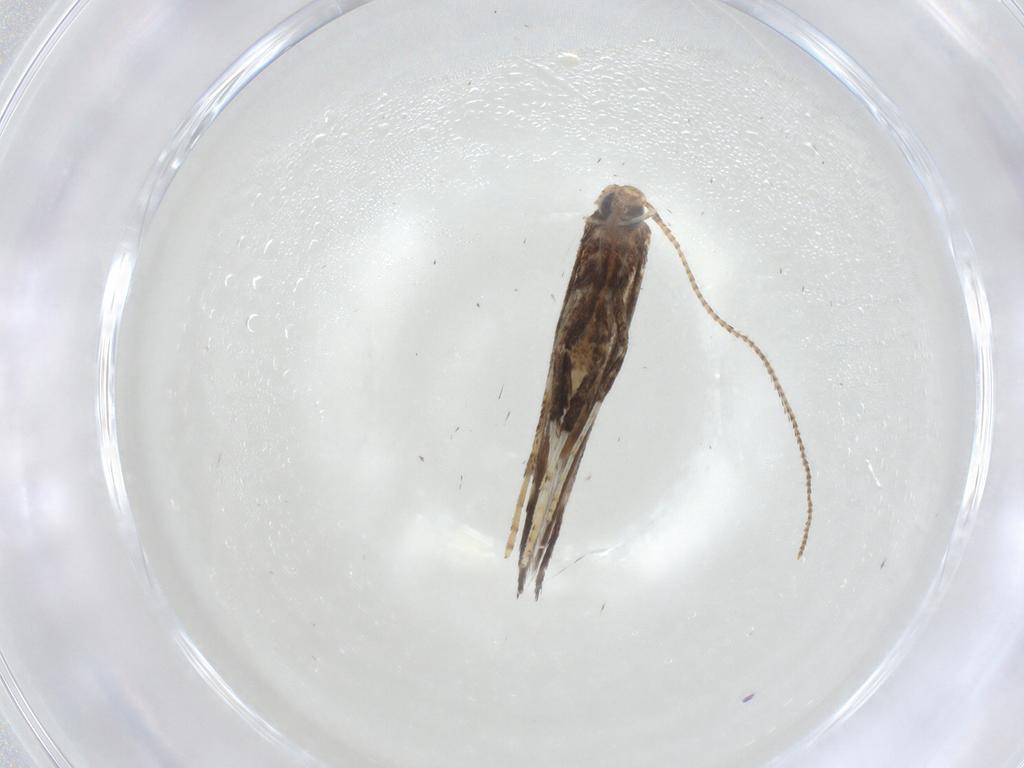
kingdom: Animalia
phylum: Arthropoda
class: Insecta
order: Lepidoptera
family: Gracillariidae
